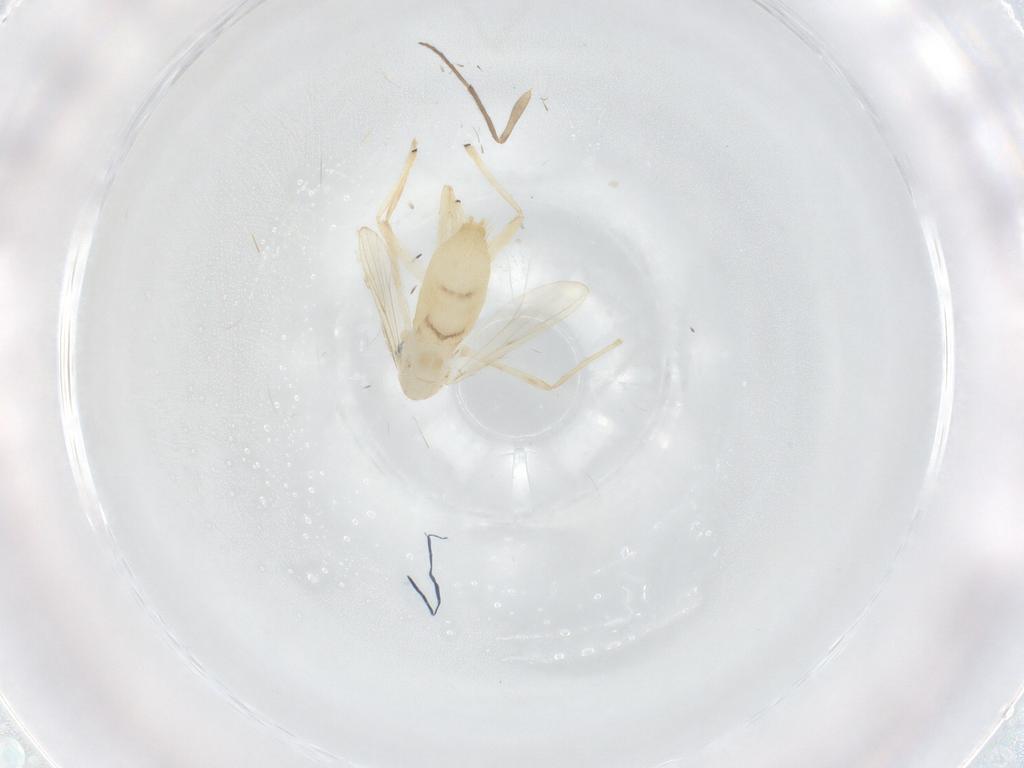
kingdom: Animalia
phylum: Arthropoda
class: Insecta
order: Diptera
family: Chironomidae
